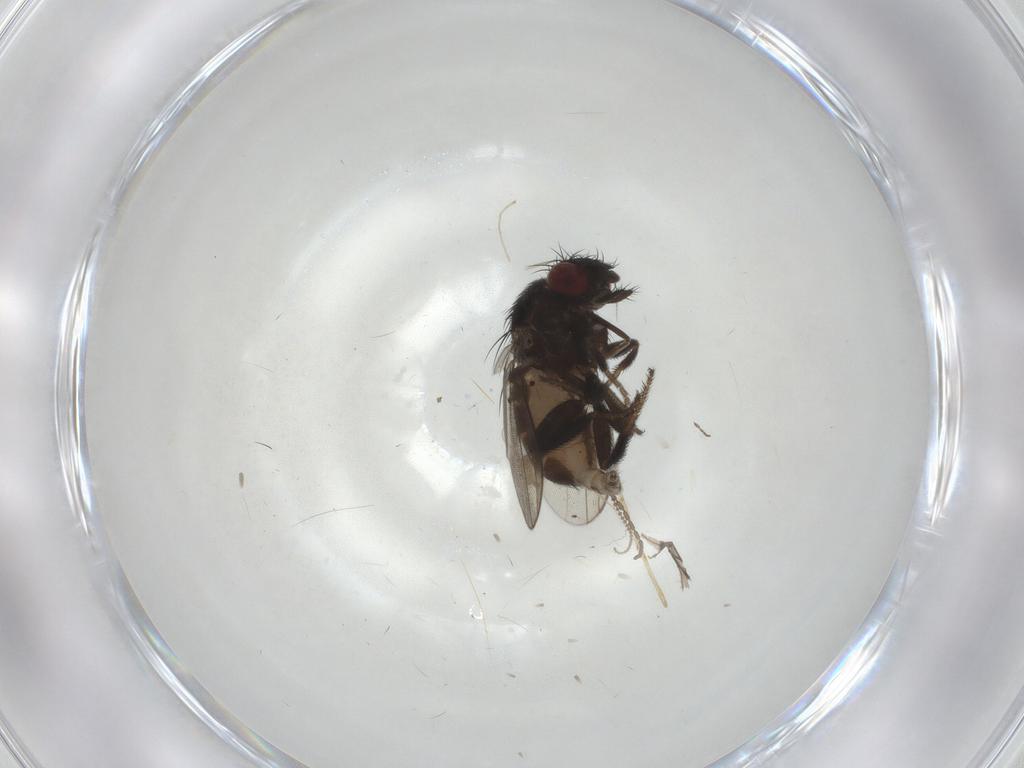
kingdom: Animalia
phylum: Arthropoda
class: Insecta
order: Diptera
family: Milichiidae
